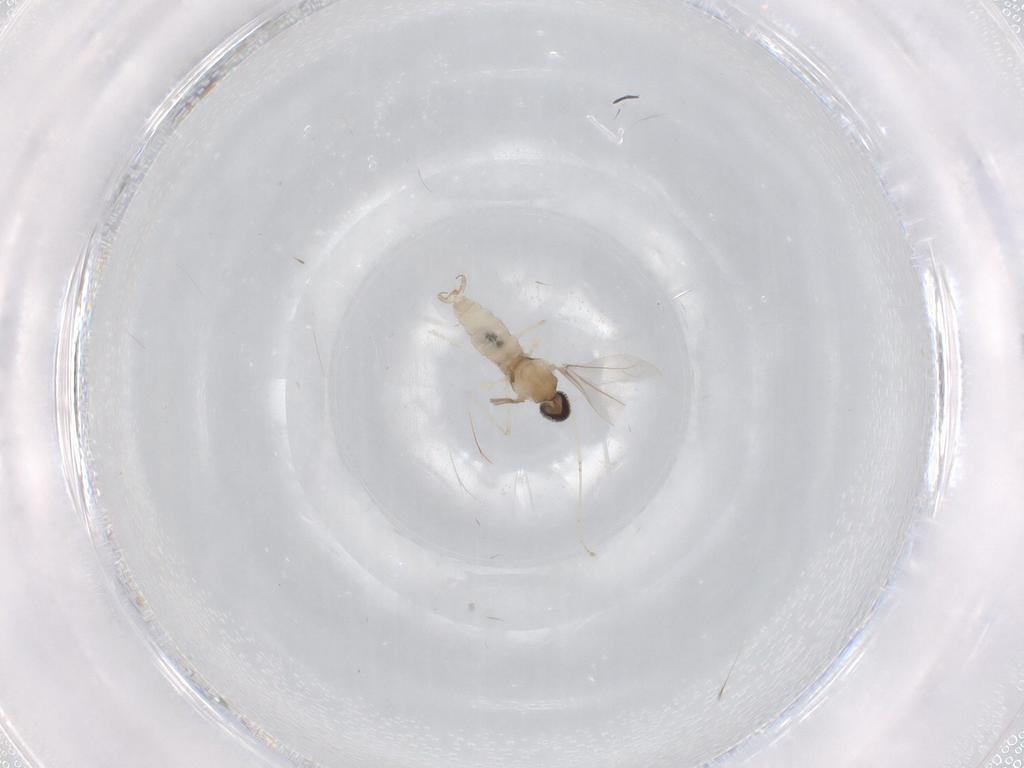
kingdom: Animalia
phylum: Arthropoda
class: Insecta
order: Diptera
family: Cecidomyiidae
